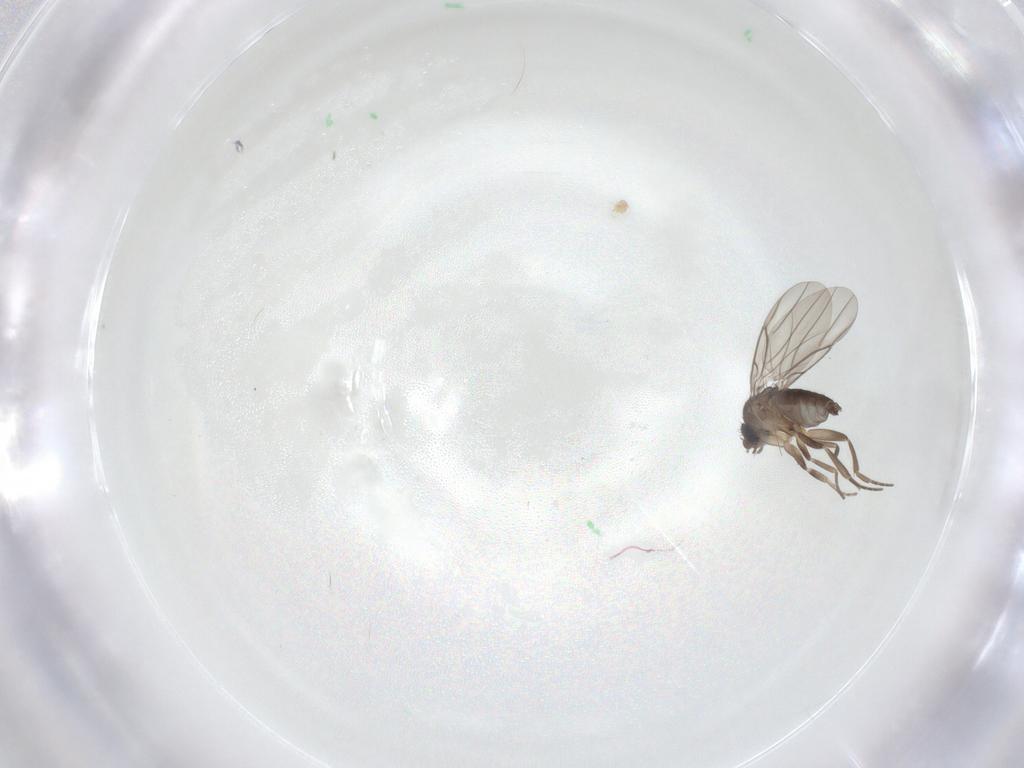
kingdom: Animalia
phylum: Arthropoda
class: Insecta
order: Diptera
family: Phoridae
